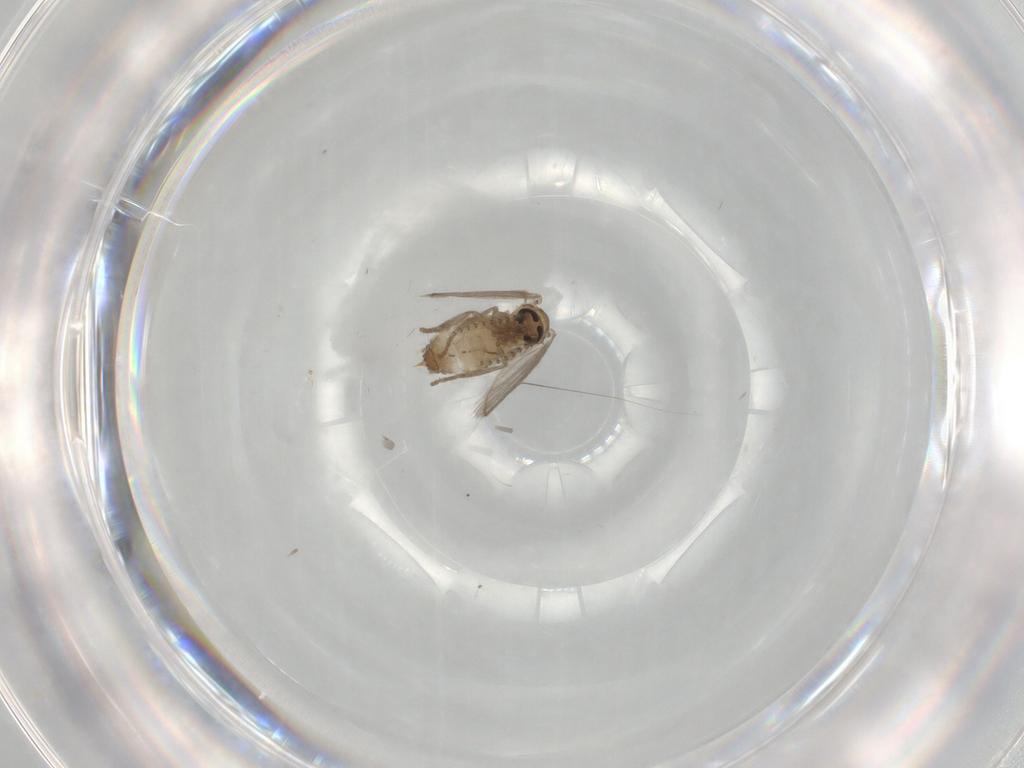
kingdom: Animalia
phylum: Arthropoda
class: Insecta
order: Diptera
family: Psychodidae
